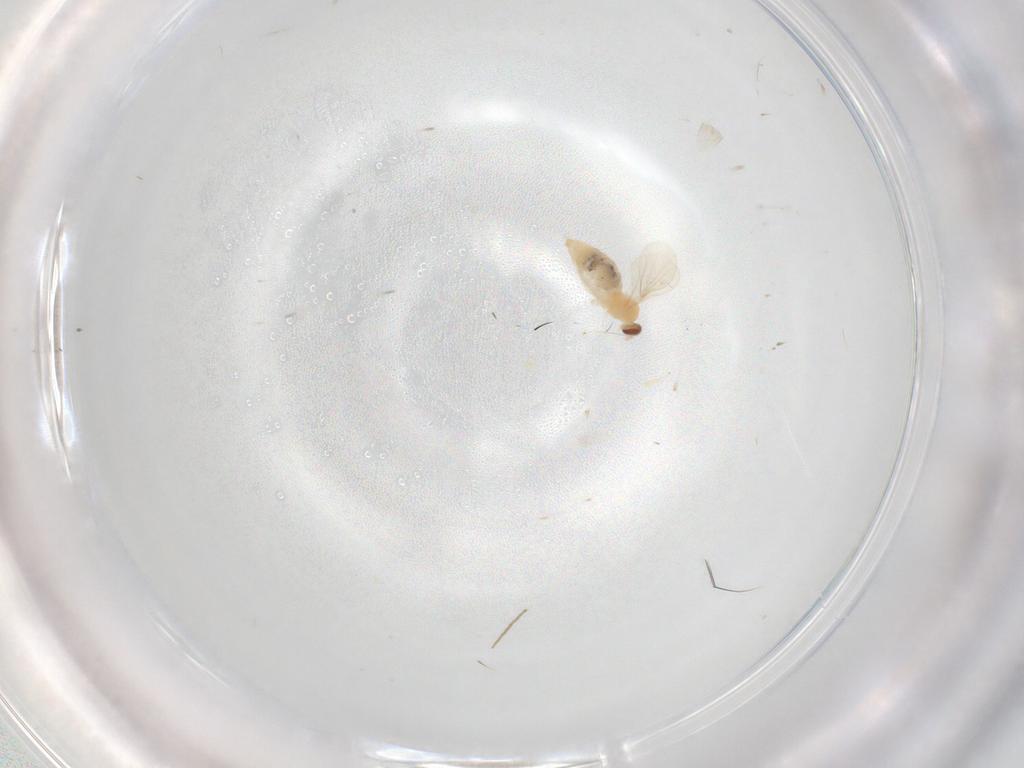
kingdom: Animalia
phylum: Arthropoda
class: Insecta
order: Diptera
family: Cecidomyiidae
